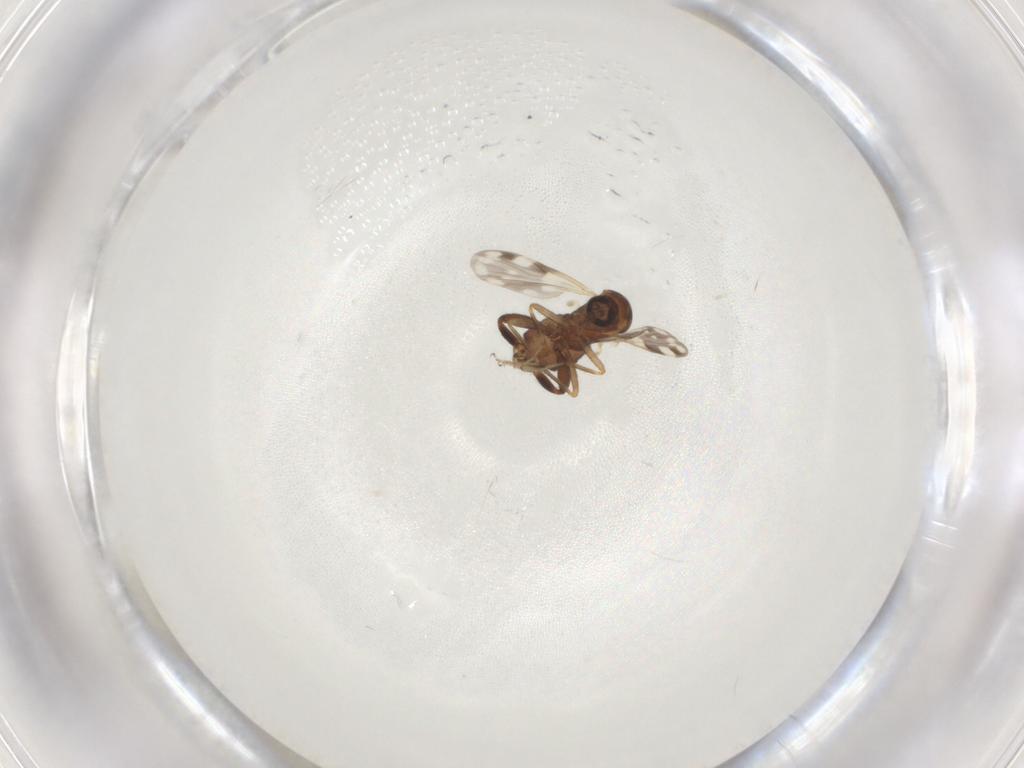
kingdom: Animalia
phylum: Arthropoda
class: Insecta
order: Diptera
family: Ceratopogonidae
